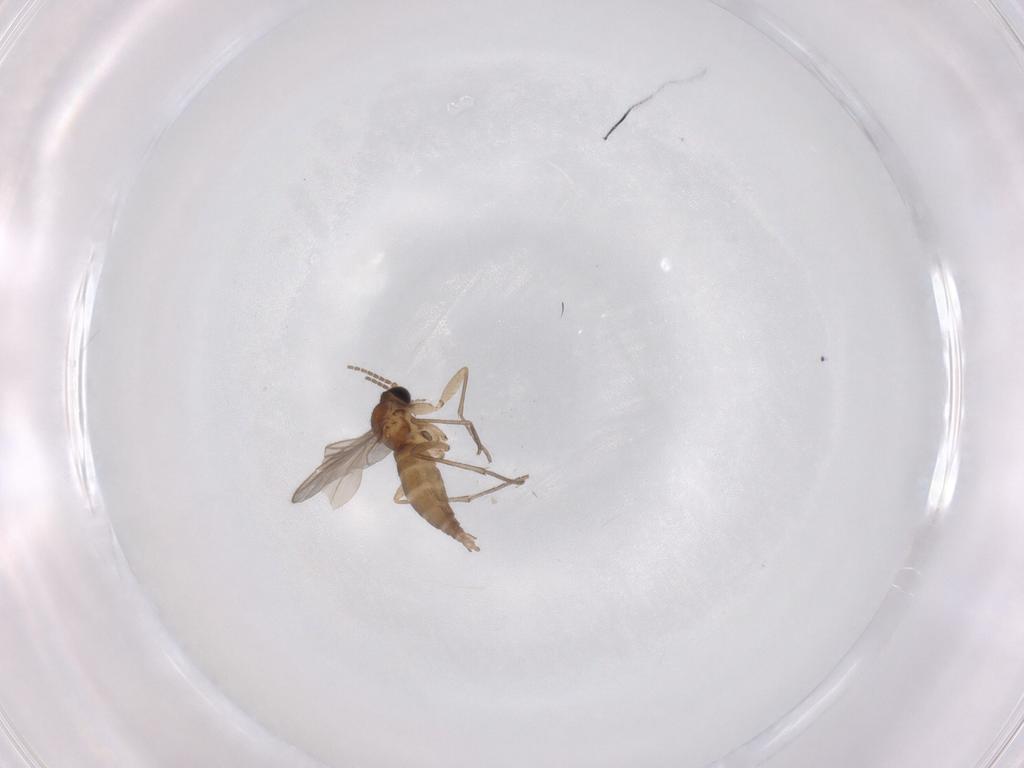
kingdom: Animalia
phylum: Arthropoda
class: Insecta
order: Diptera
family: Sciaridae
